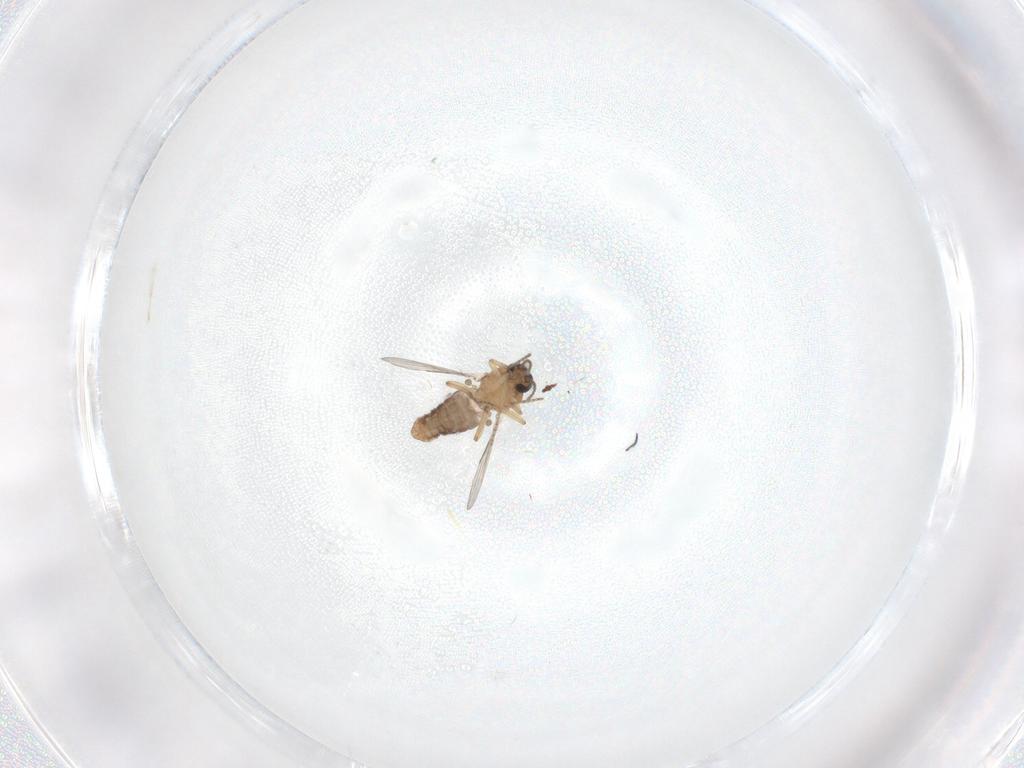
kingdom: Animalia
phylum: Arthropoda
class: Insecta
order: Diptera
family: Ceratopogonidae
